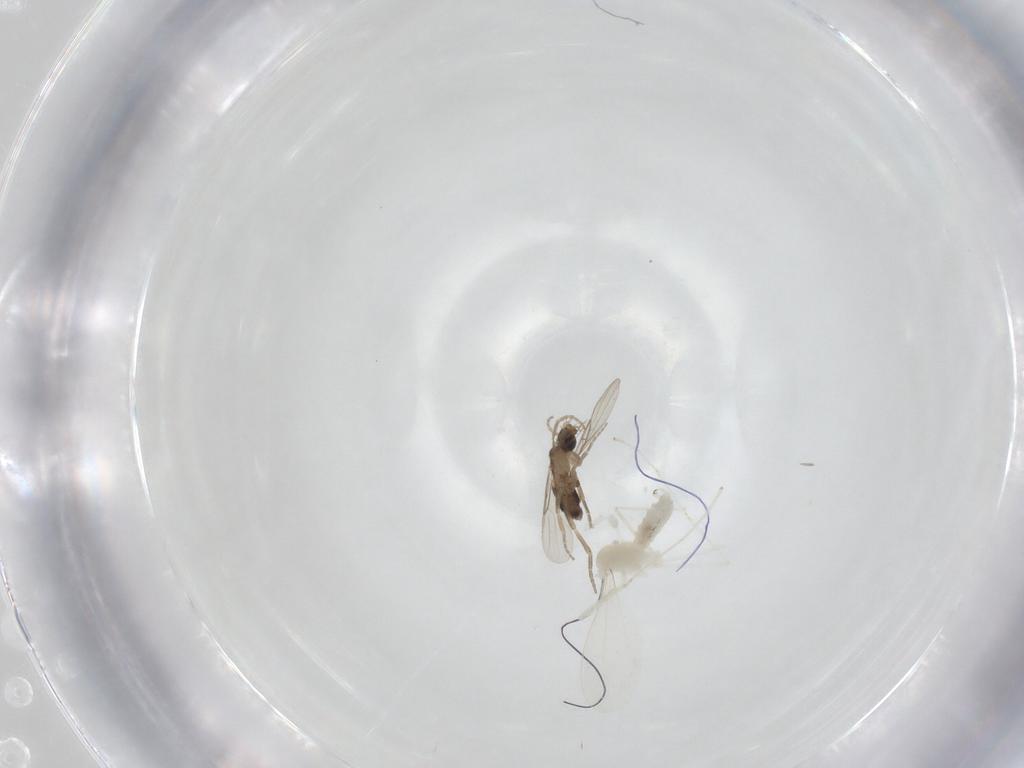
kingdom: Animalia
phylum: Arthropoda
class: Insecta
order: Diptera
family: Cecidomyiidae
